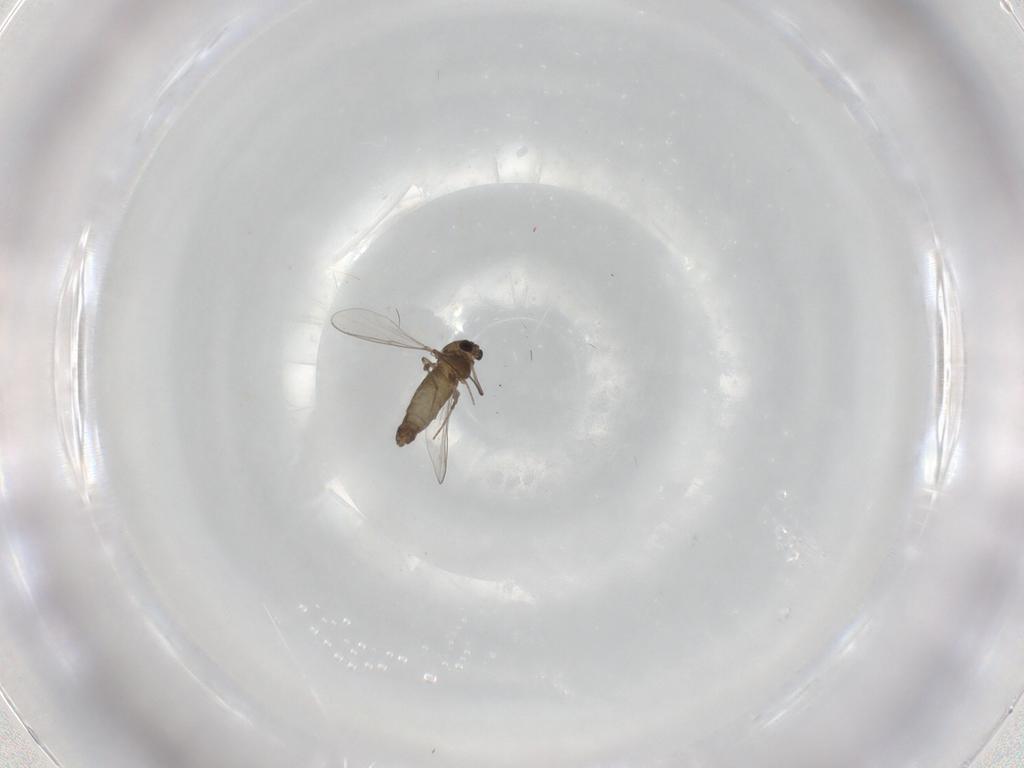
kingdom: Animalia
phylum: Arthropoda
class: Insecta
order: Diptera
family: Chironomidae
